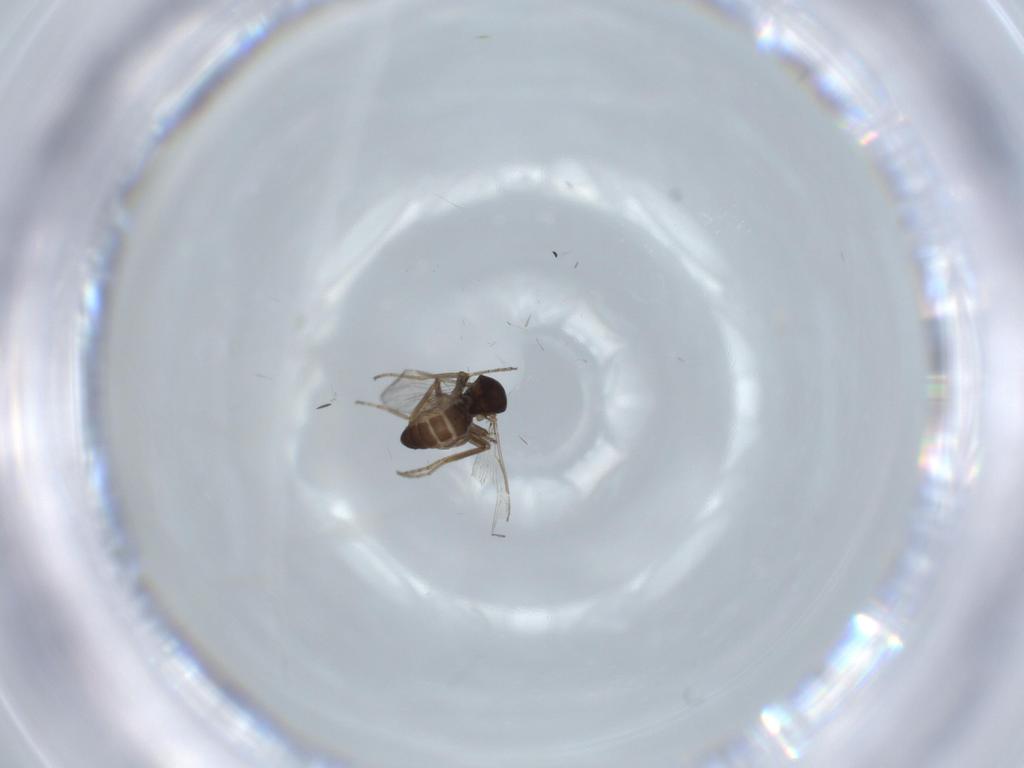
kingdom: Animalia
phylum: Arthropoda
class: Insecta
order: Diptera
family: Ceratopogonidae
